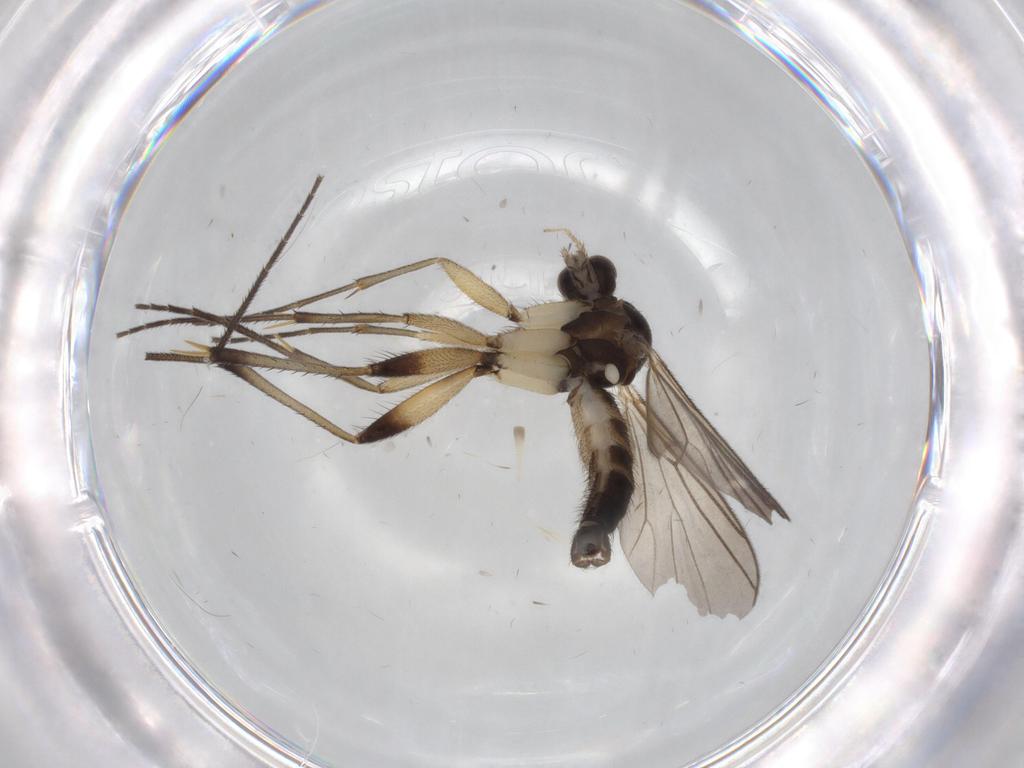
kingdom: Animalia
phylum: Arthropoda
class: Insecta
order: Diptera
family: Mycetophilidae
